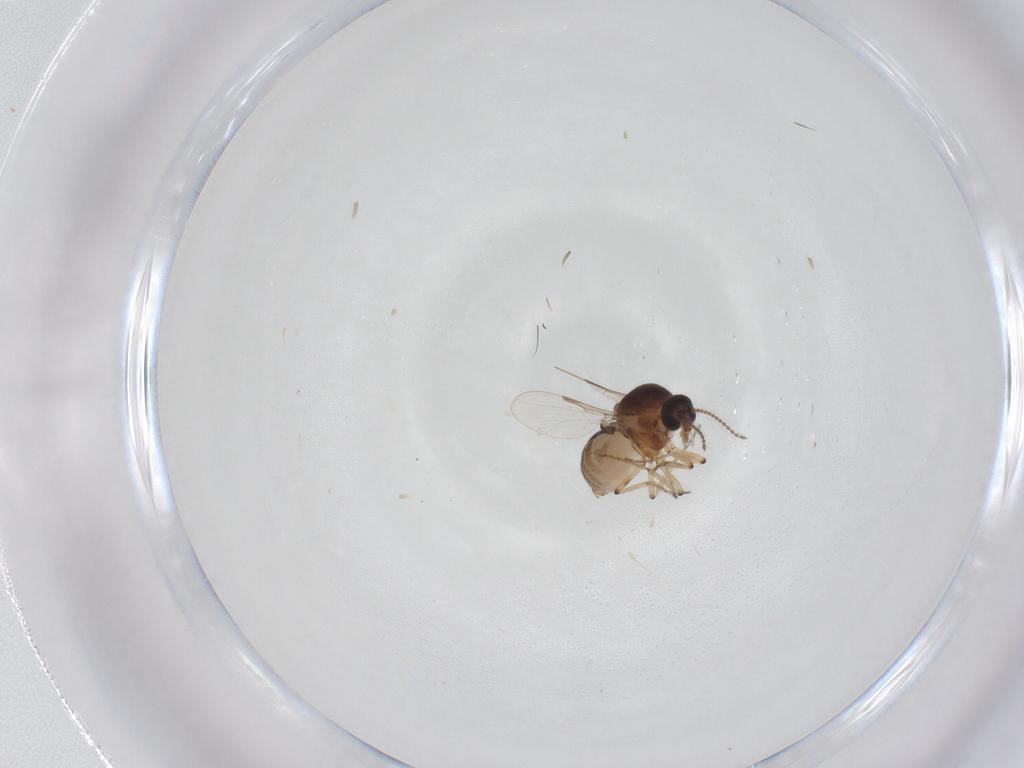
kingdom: Animalia
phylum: Arthropoda
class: Insecta
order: Diptera
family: Ceratopogonidae
